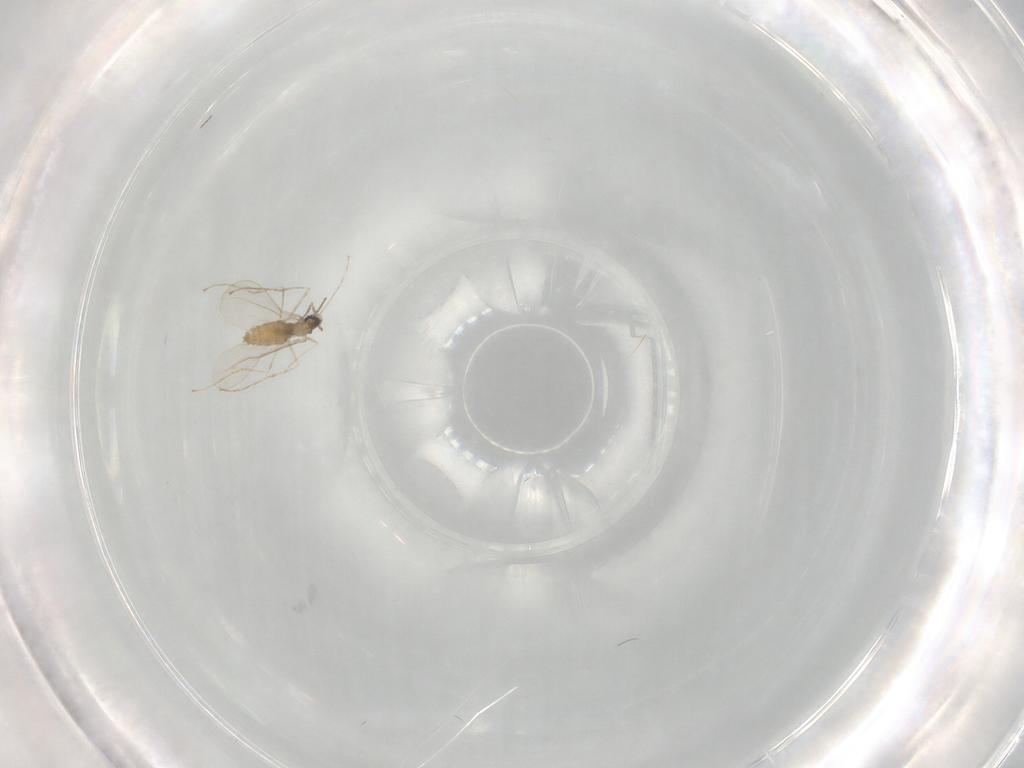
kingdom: Animalia
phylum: Arthropoda
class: Insecta
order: Diptera
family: Cecidomyiidae
